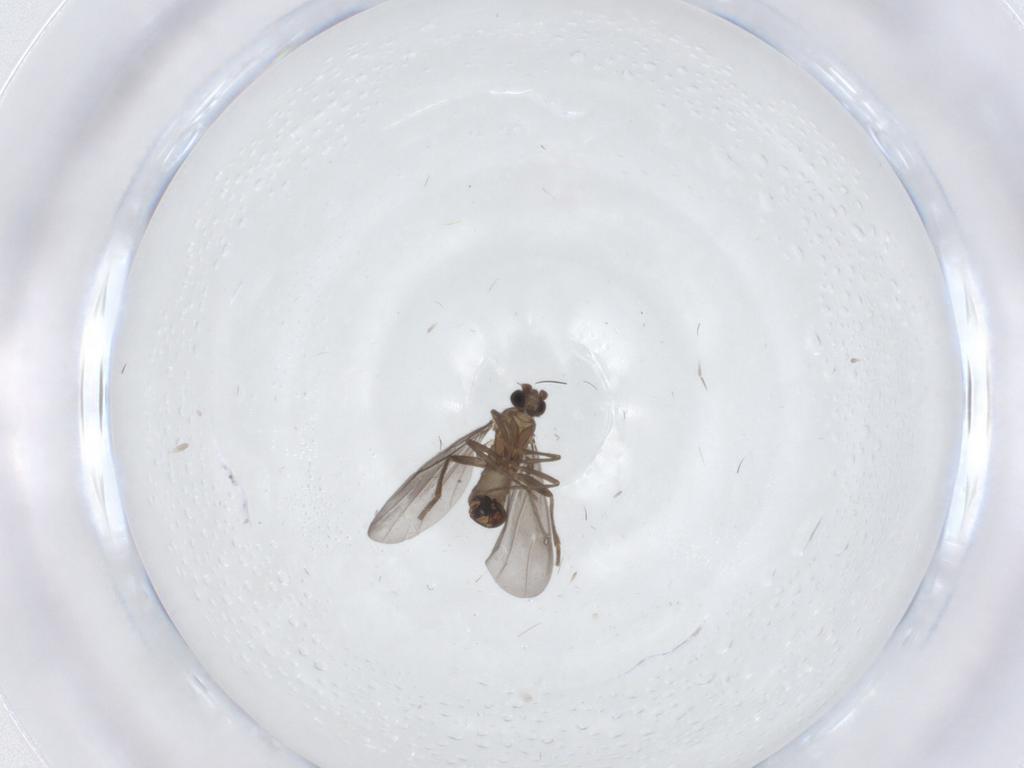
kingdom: Animalia
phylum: Arthropoda
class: Insecta
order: Diptera
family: Phoridae
